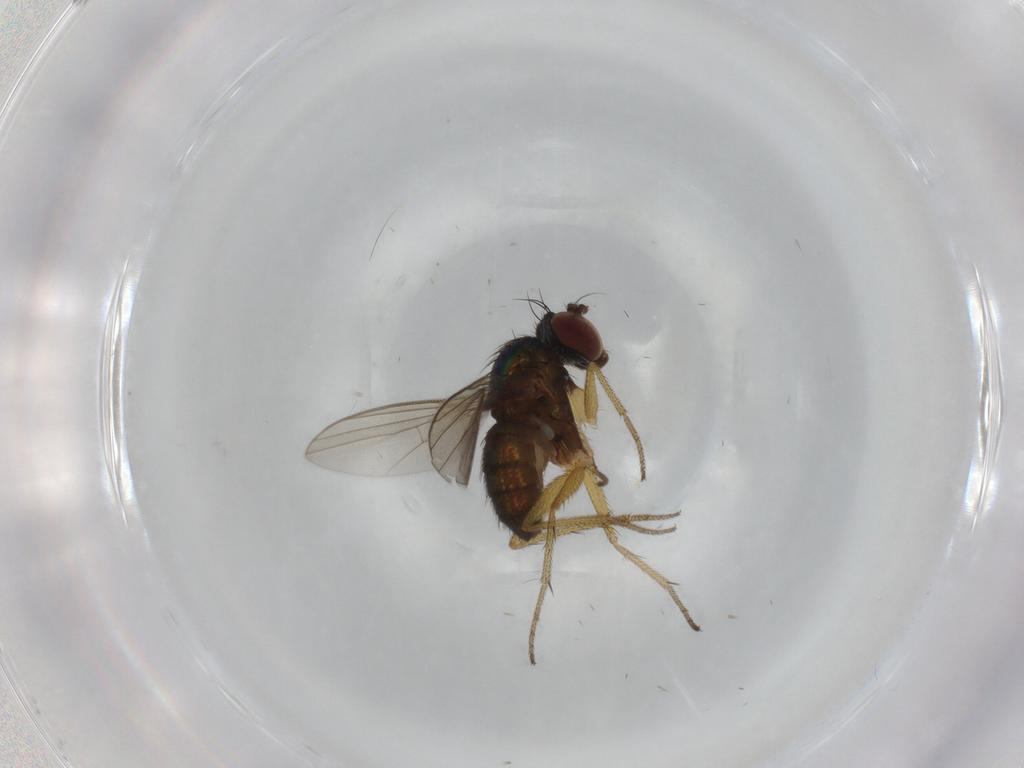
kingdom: Animalia
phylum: Arthropoda
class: Insecta
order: Diptera
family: Dolichopodidae
